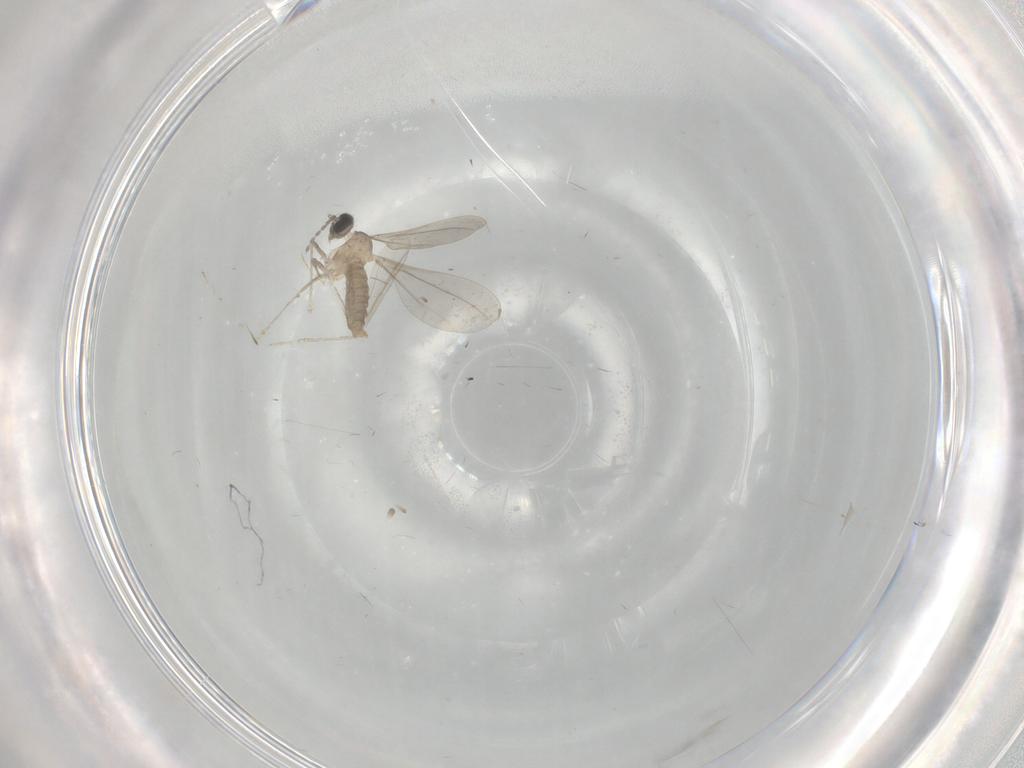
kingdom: Animalia
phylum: Arthropoda
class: Insecta
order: Diptera
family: Cecidomyiidae
